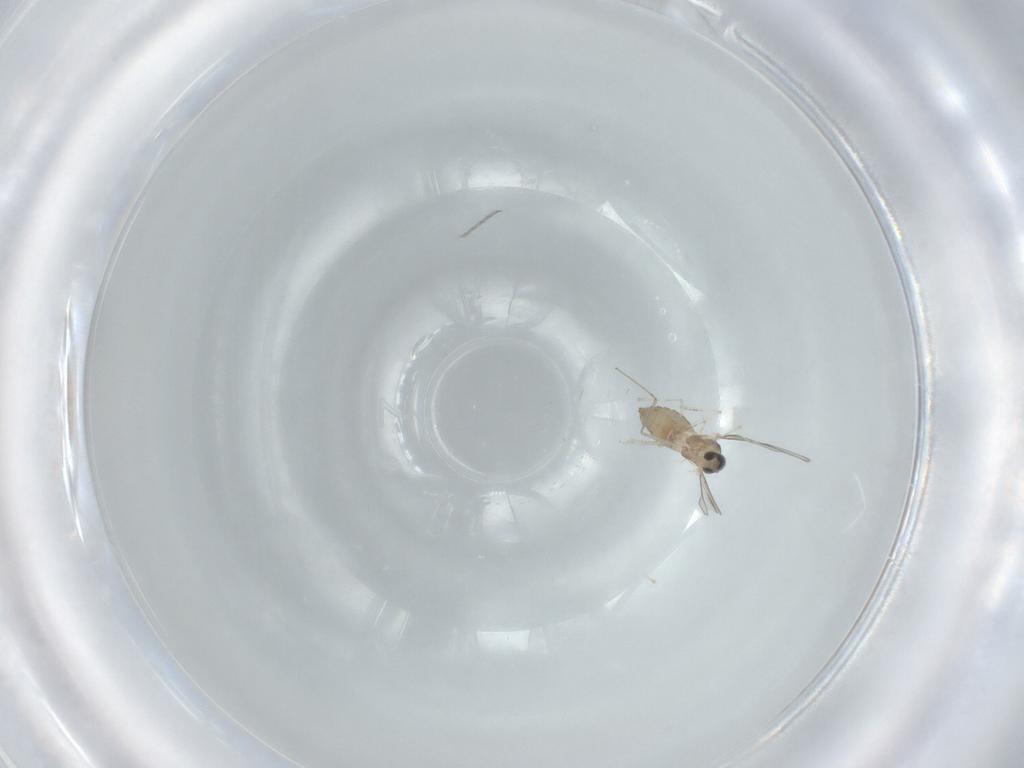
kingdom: Animalia
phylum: Arthropoda
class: Insecta
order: Diptera
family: Cecidomyiidae
